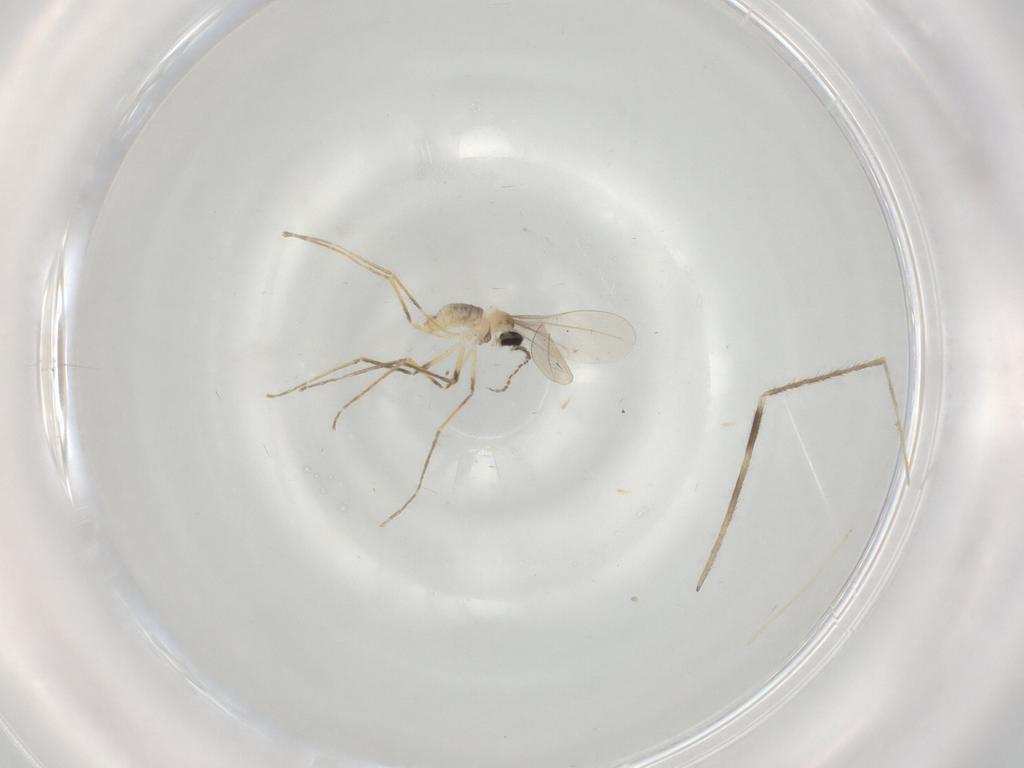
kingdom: Animalia
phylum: Arthropoda
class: Insecta
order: Diptera
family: Cecidomyiidae
